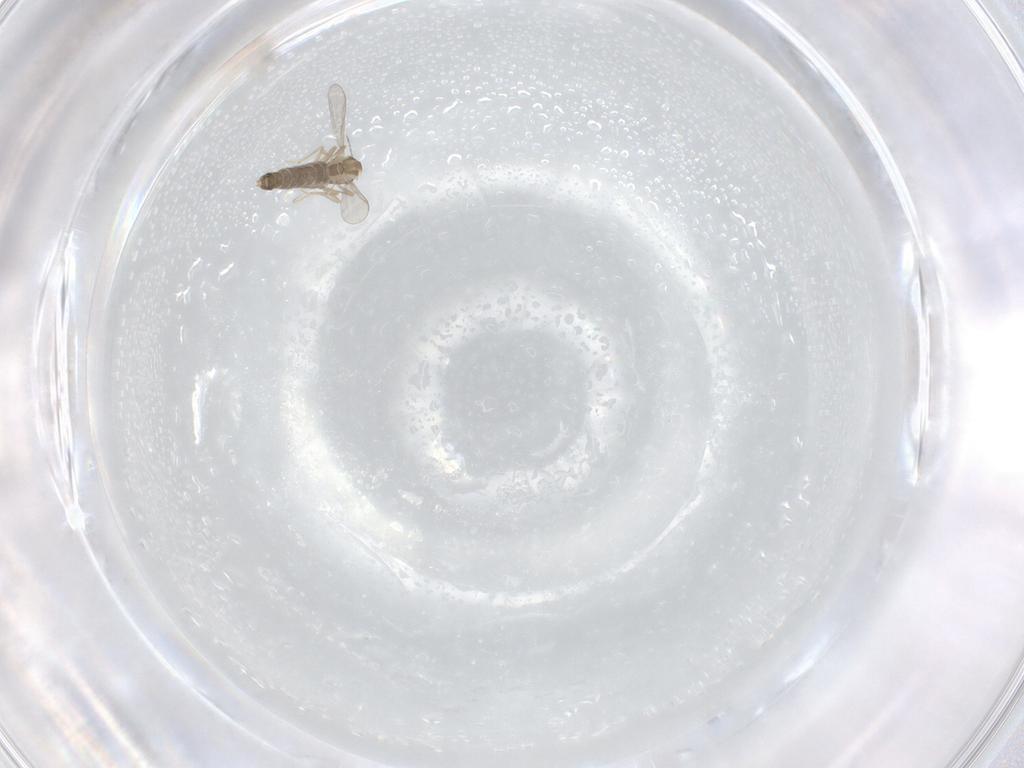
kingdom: Animalia
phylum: Arthropoda
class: Insecta
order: Diptera
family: Chironomidae
